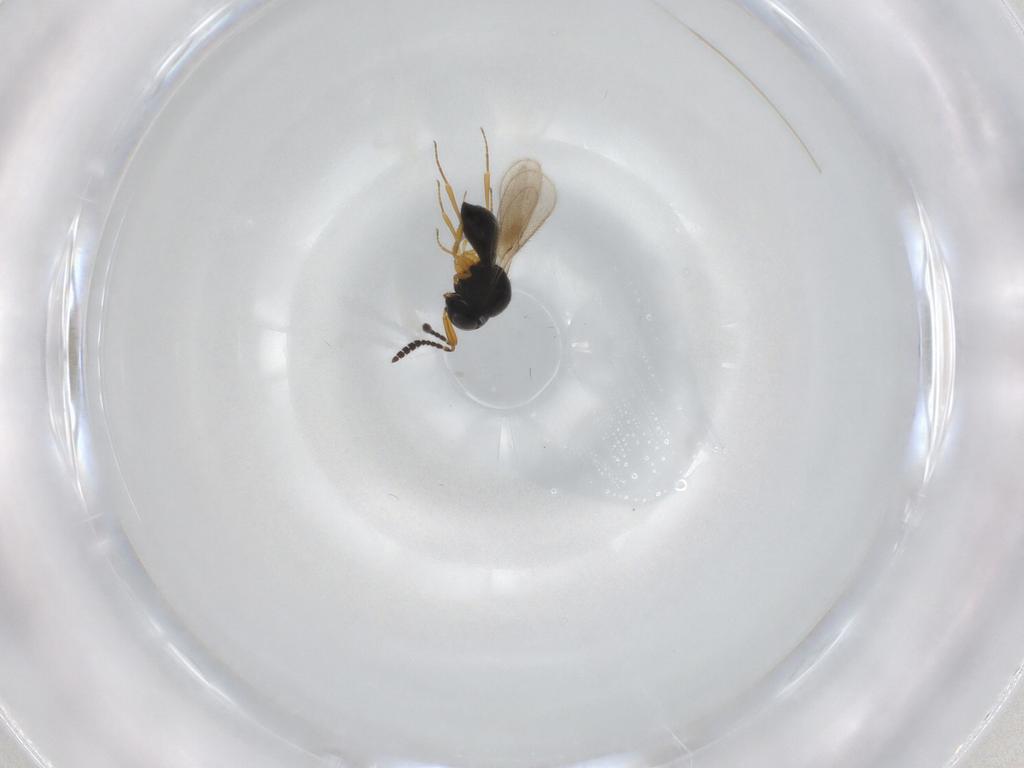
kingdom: Animalia
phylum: Arthropoda
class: Insecta
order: Hymenoptera
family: Scelionidae
